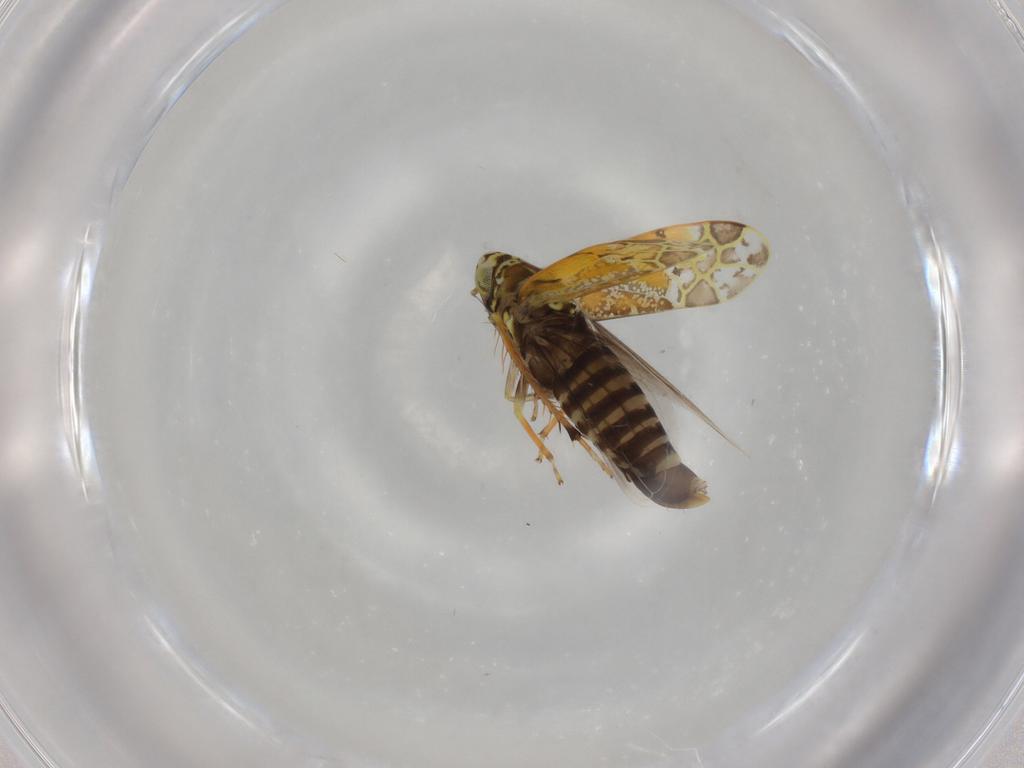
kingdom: Animalia
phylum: Arthropoda
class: Insecta
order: Hemiptera
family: Cicadellidae
